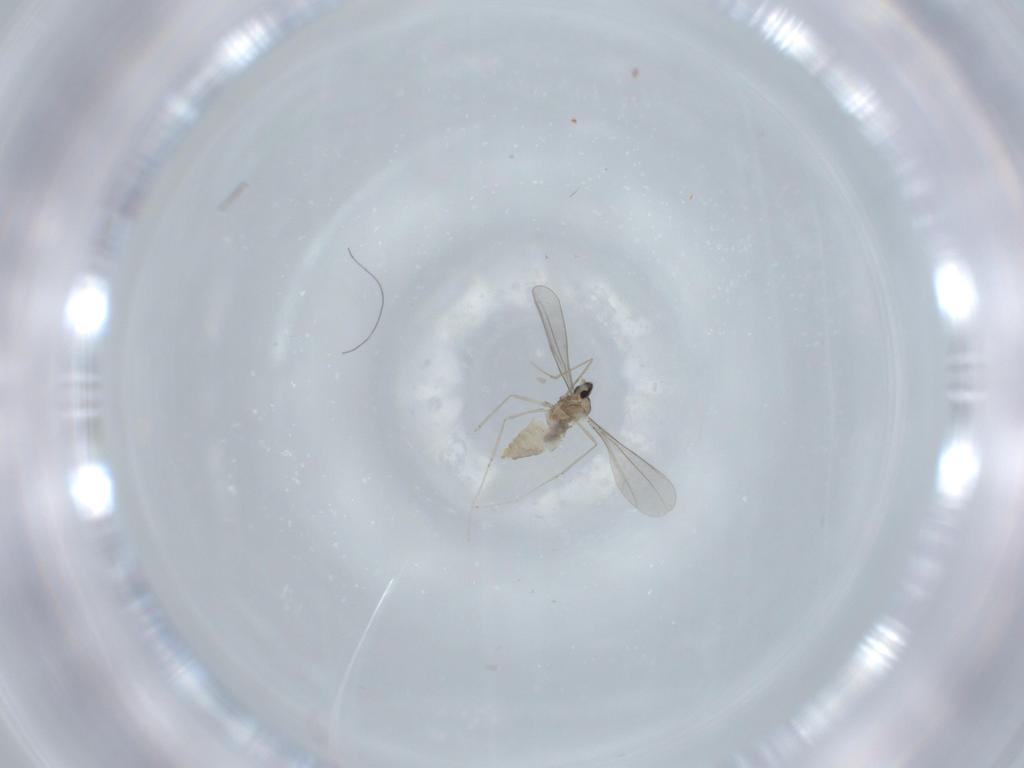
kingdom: Animalia
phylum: Arthropoda
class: Insecta
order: Diptera
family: Cecidomyiidae
